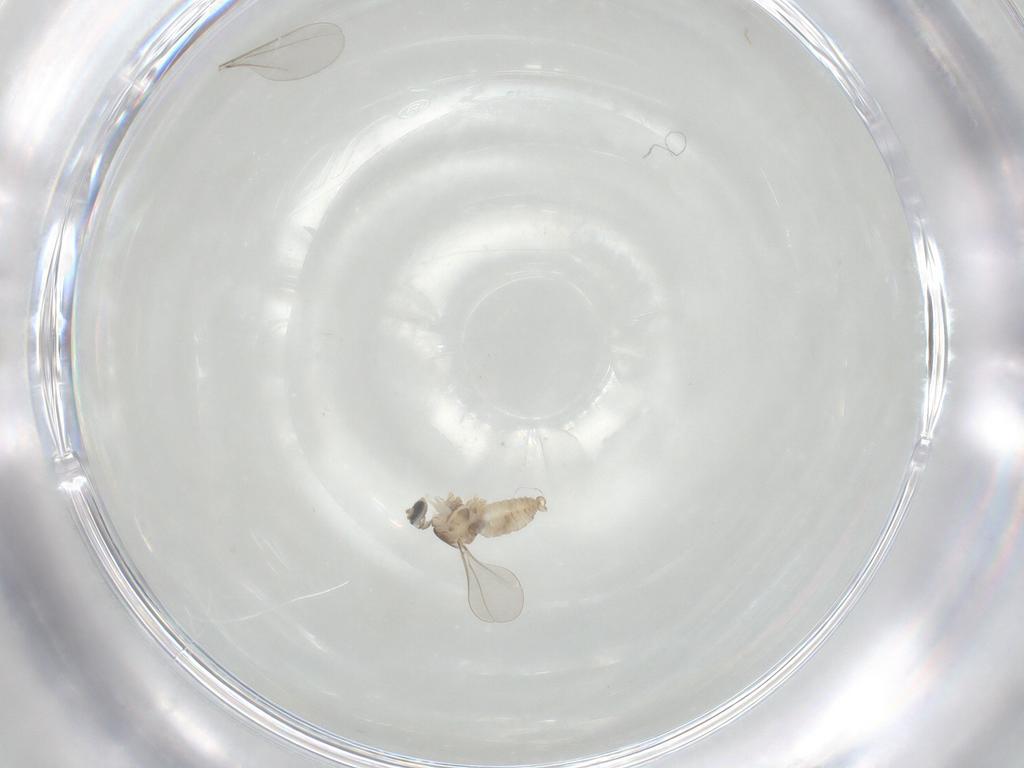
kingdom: Animalia
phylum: Arthropoda
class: Insecta
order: Diptera
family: Cecidomyiidae
